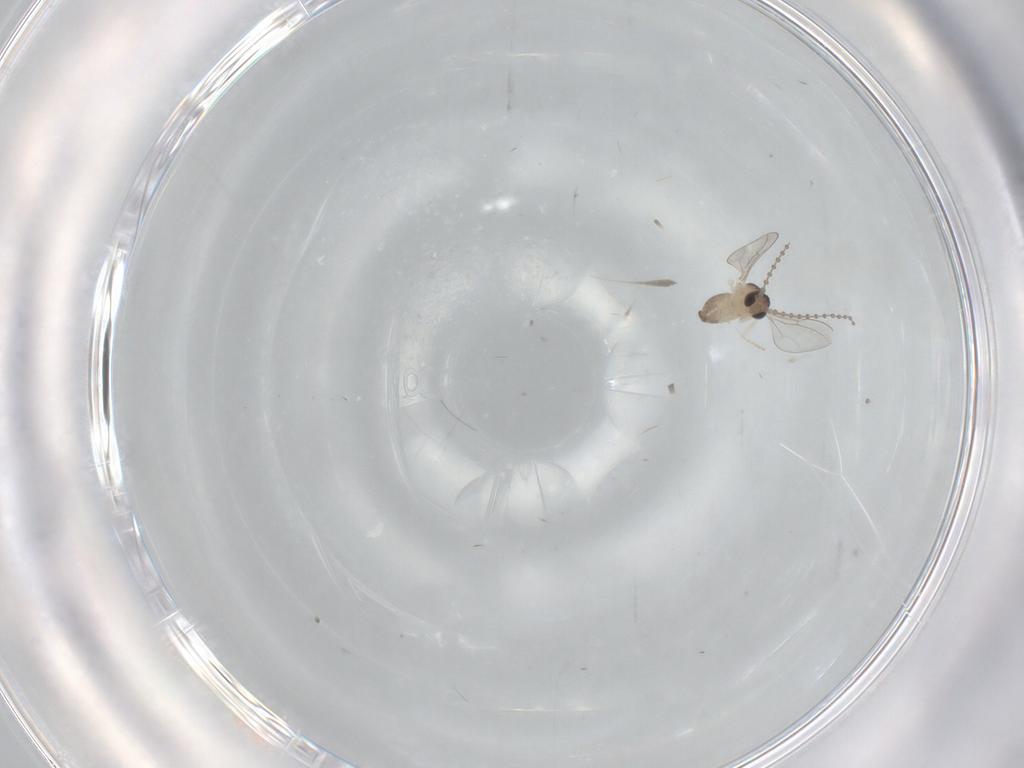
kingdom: Animalia
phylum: Arthropoda
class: Insecta
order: Diptera
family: Cecidomyiidae
